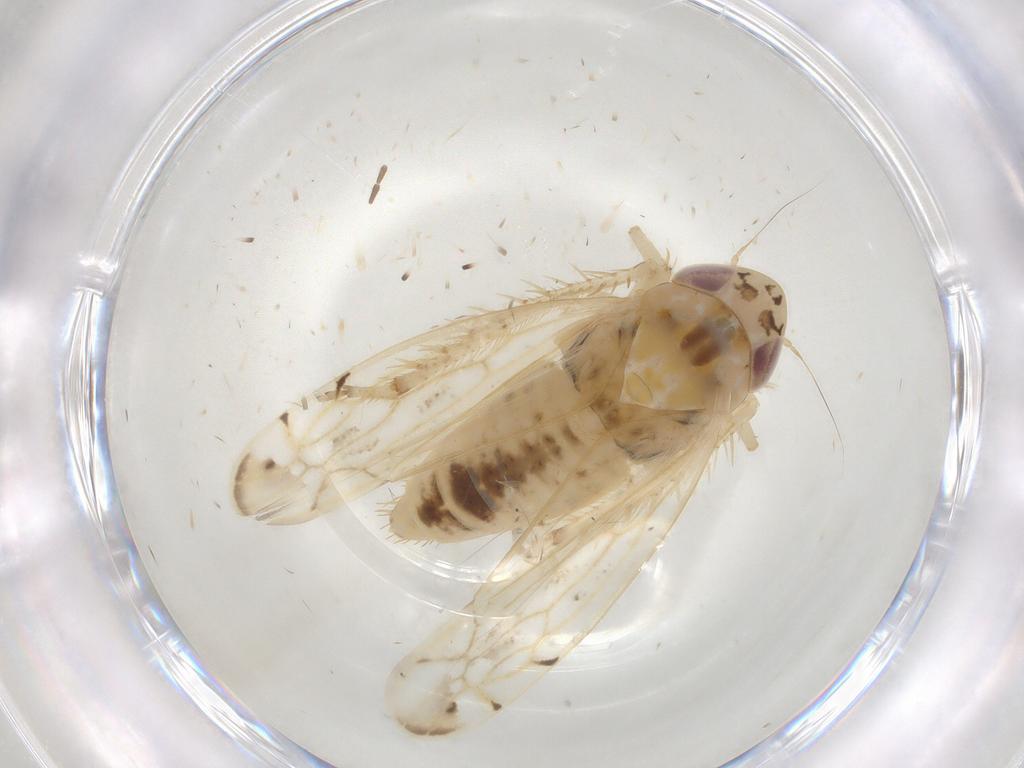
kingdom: Animalia
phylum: Arthropoda
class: Insecta
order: Hemiptera
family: Cicadellidae
